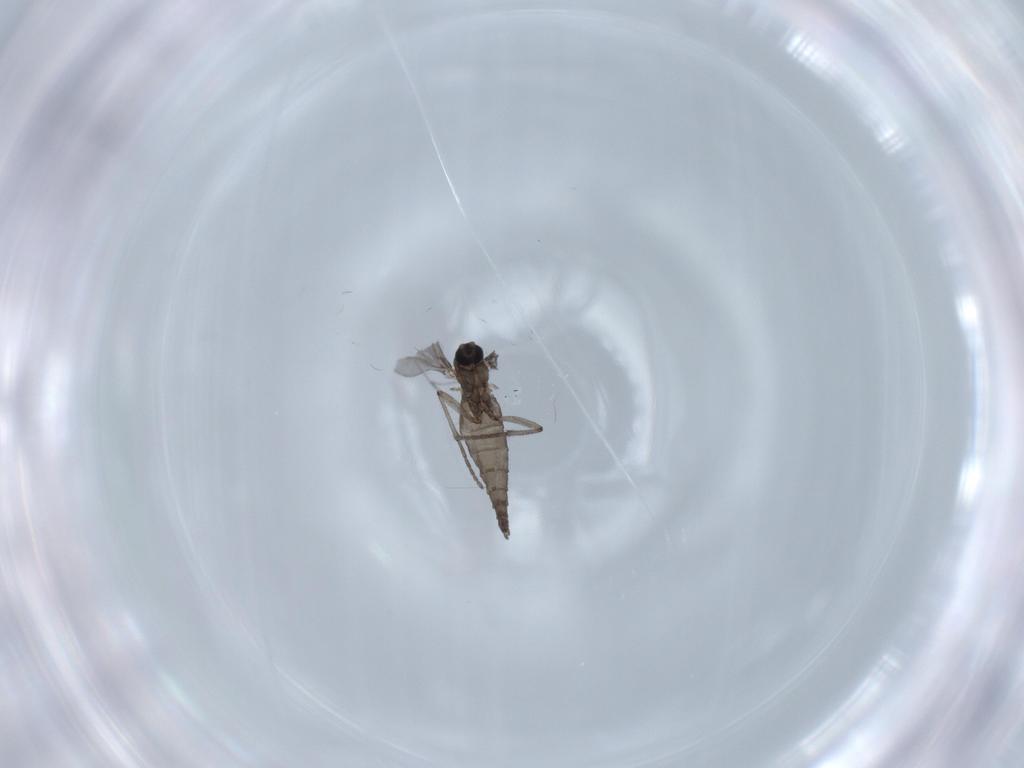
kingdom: Animalia
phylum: Arthropoda
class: Insecta
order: Diptera
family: Sciaridae
